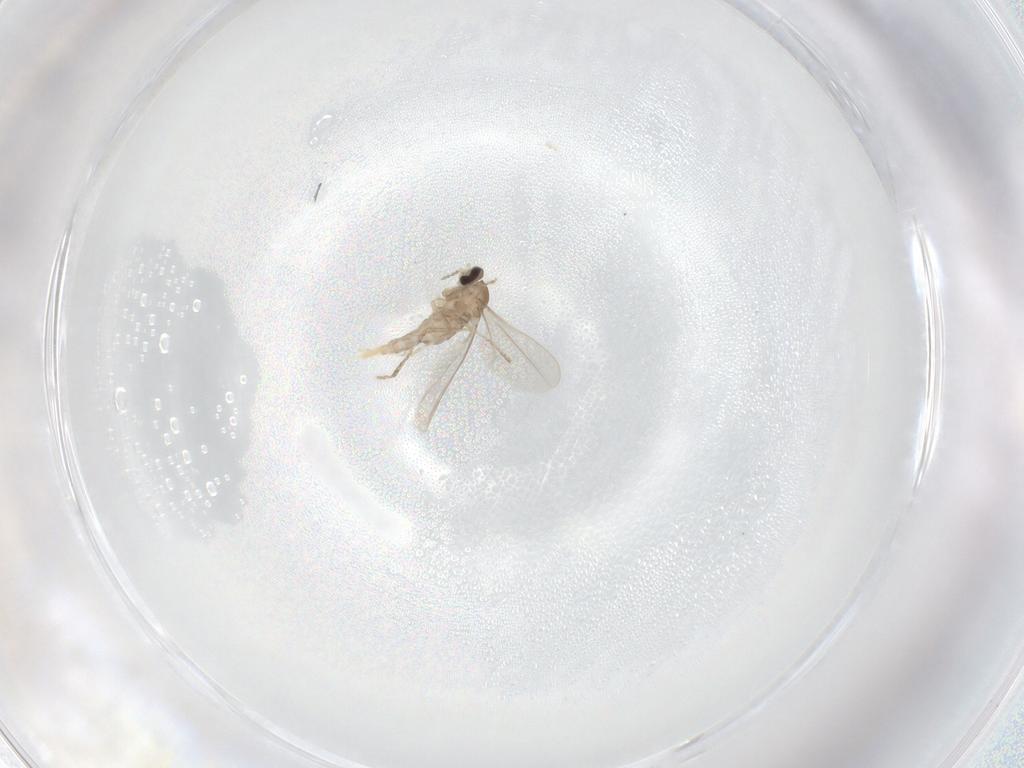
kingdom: Animalia
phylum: Arthropoda
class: Insecta
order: Diptera
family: Cecidomyiidae
